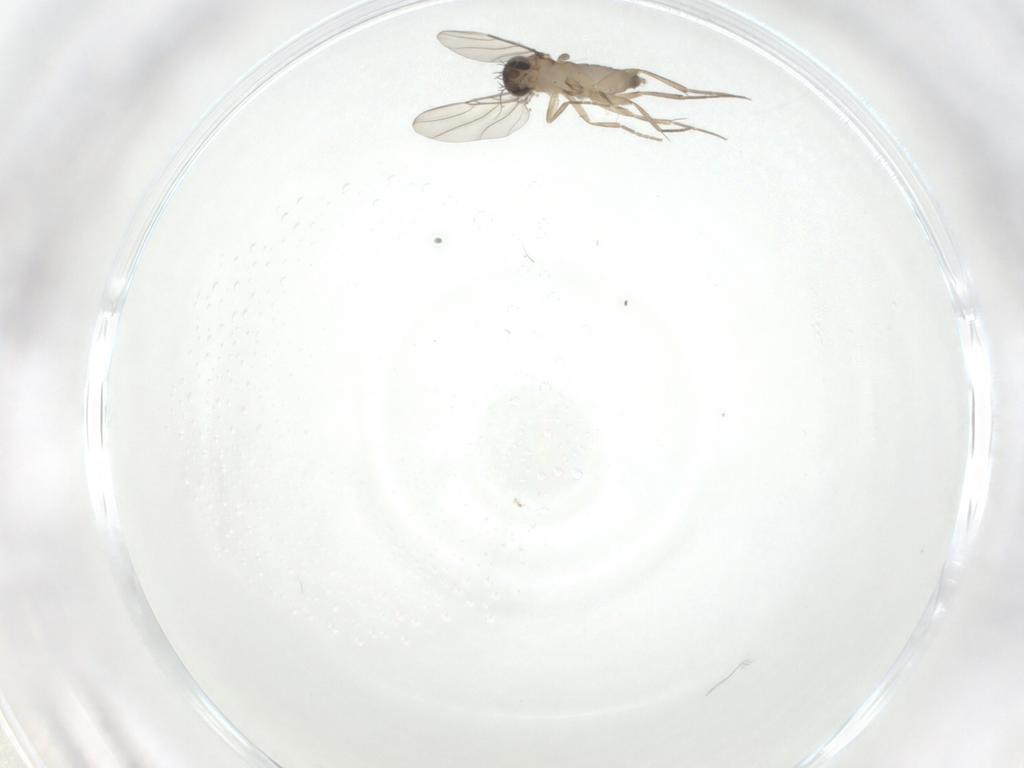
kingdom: Animalia
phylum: Arthropoda
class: Insecta
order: Diptera
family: Phoridae
